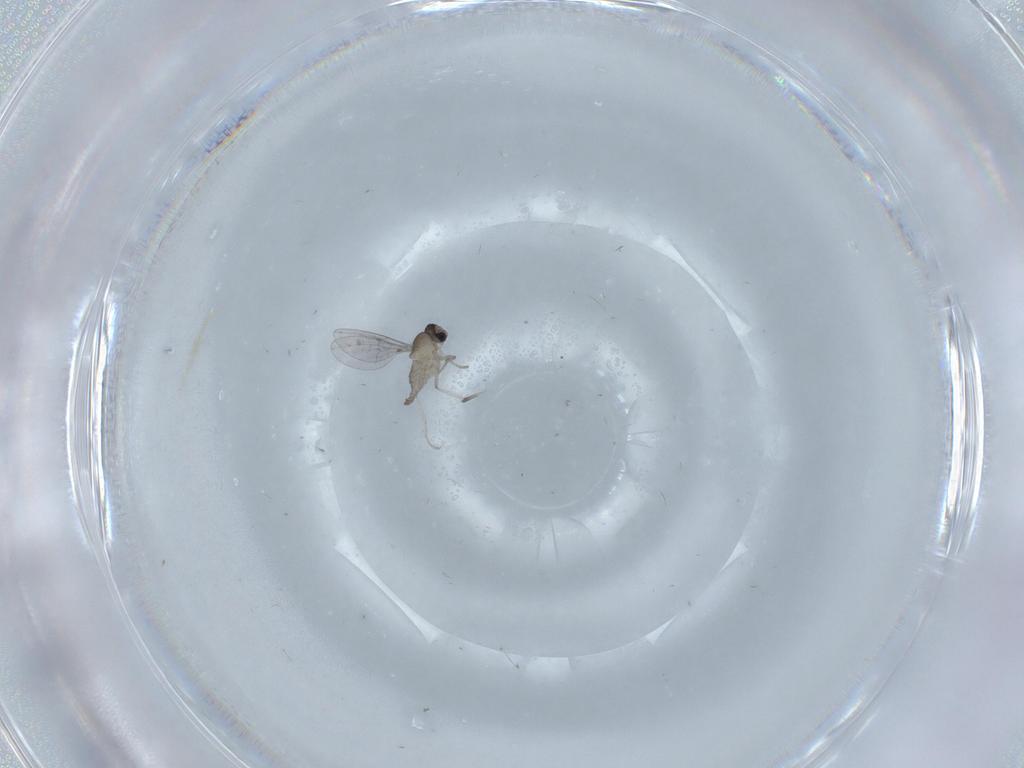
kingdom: Animalia
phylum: Arthropoda
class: Insecta
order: Diptera
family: Cecidomyiidae
